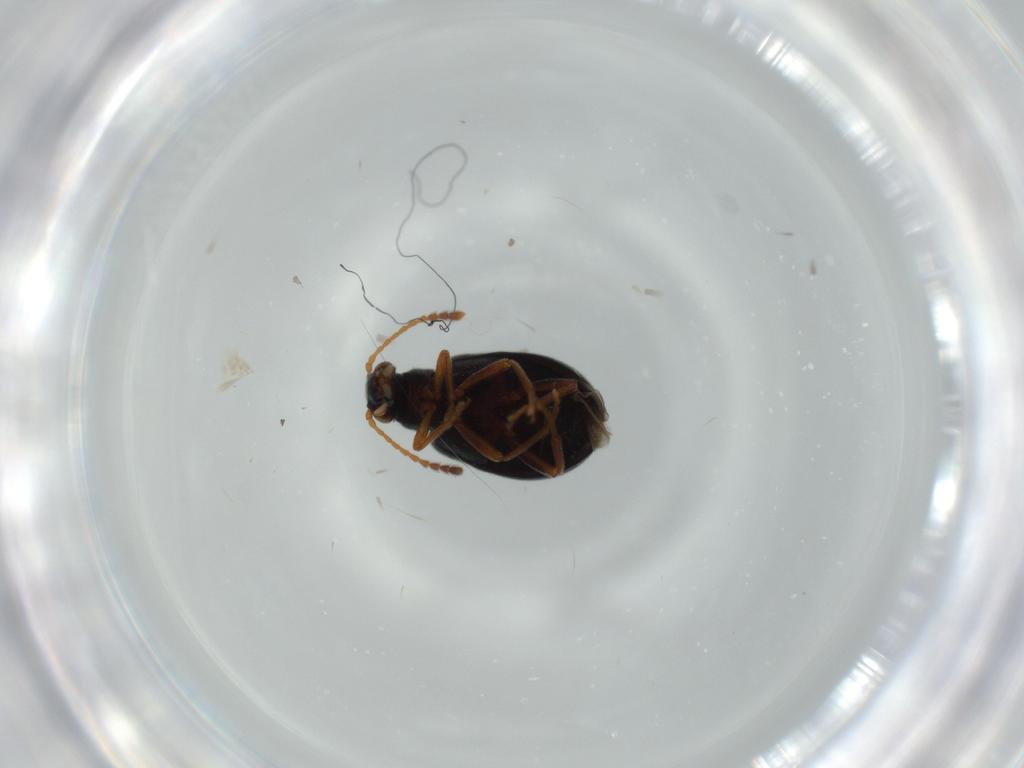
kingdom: Animalia
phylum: Arthropoda
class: Insecta
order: Coleoptera
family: Aderidae
